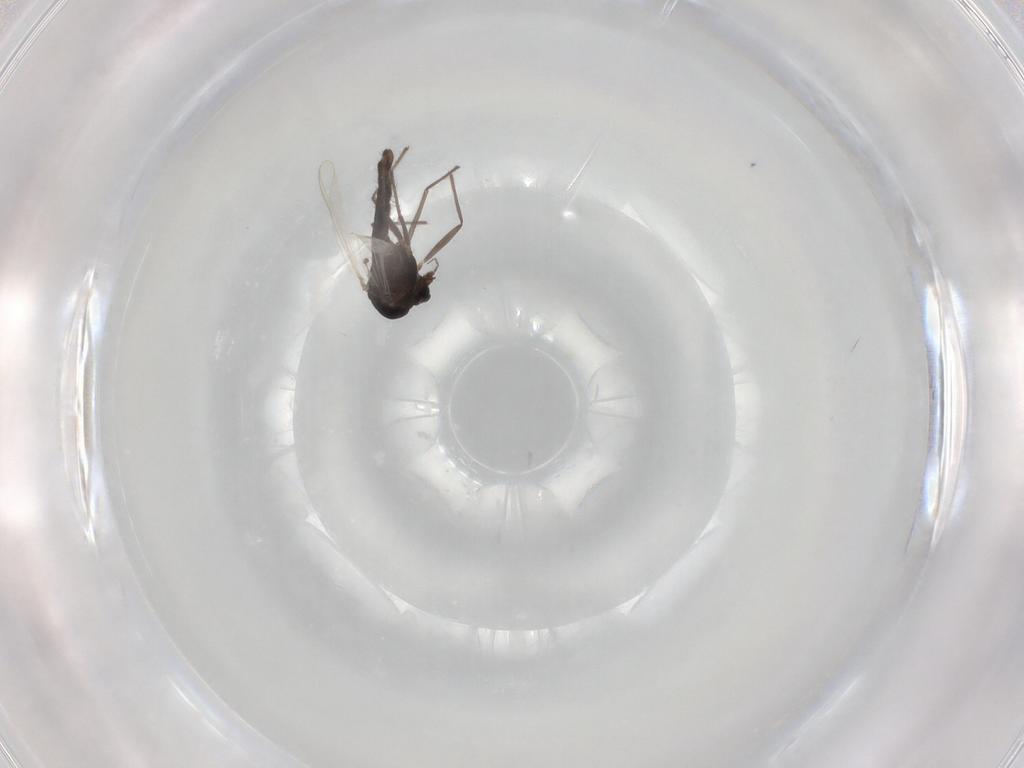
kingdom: Animalia
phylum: Arthropoda
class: Insecta
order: Diptera
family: Chironomidae
